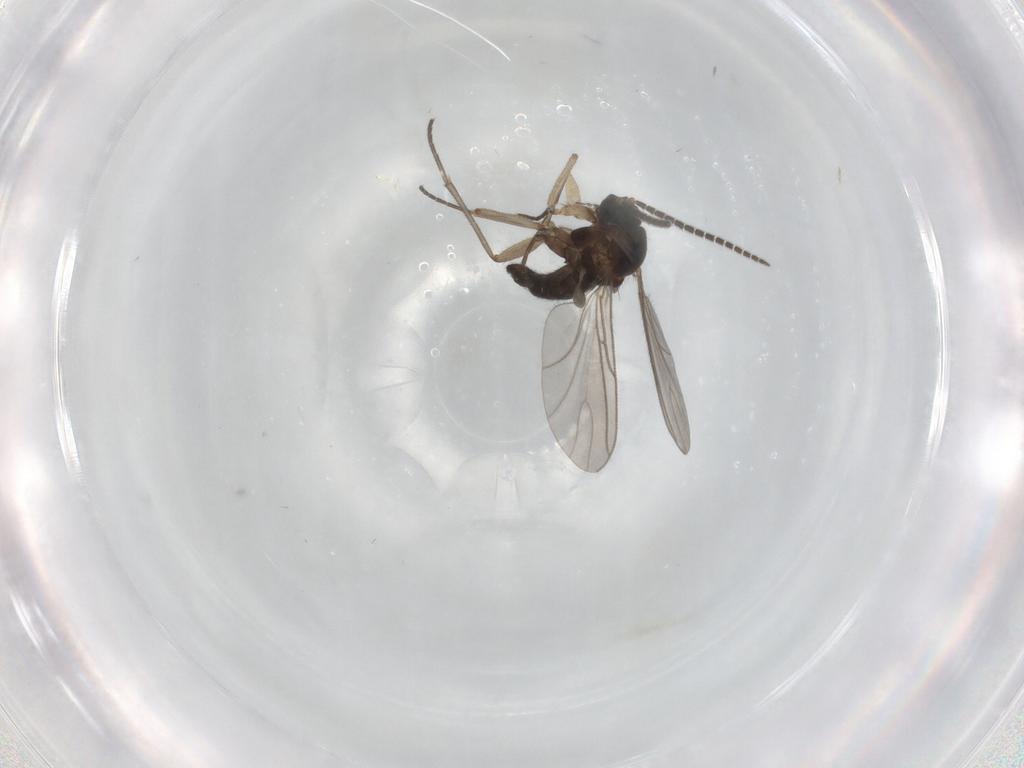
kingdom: Animalia
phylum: Arthropoda
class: Insecta
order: Diptera
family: Sciaridae
